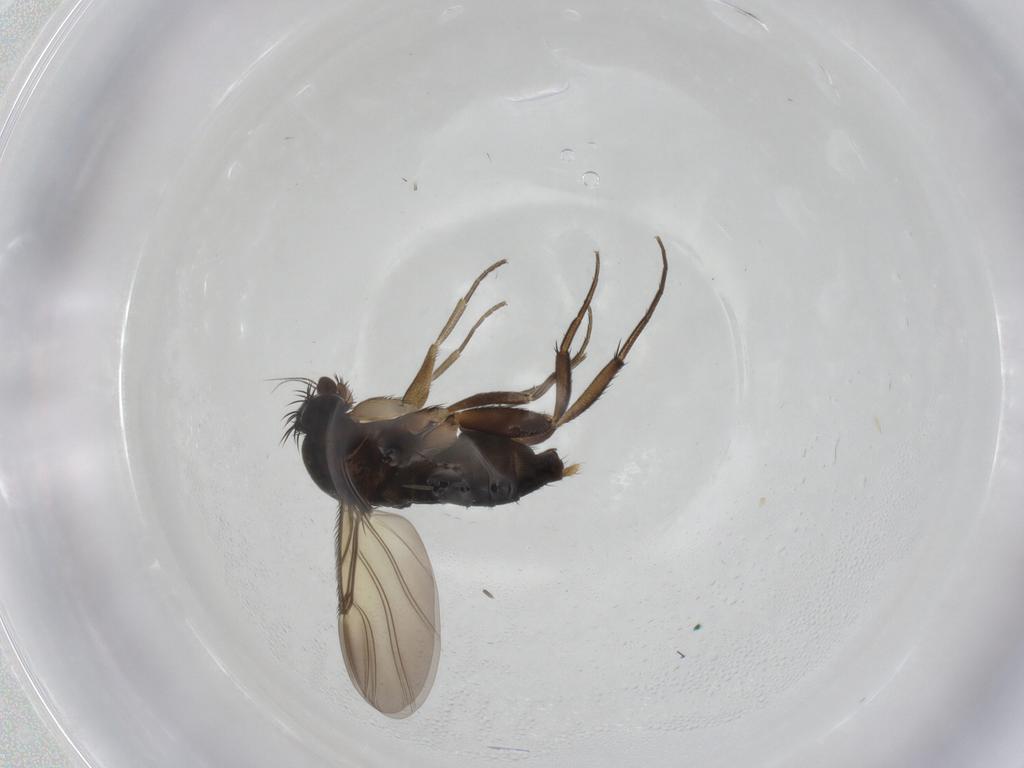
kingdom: Animalia
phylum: Arthropoda
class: Insecta
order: Diptera
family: Phoridae
